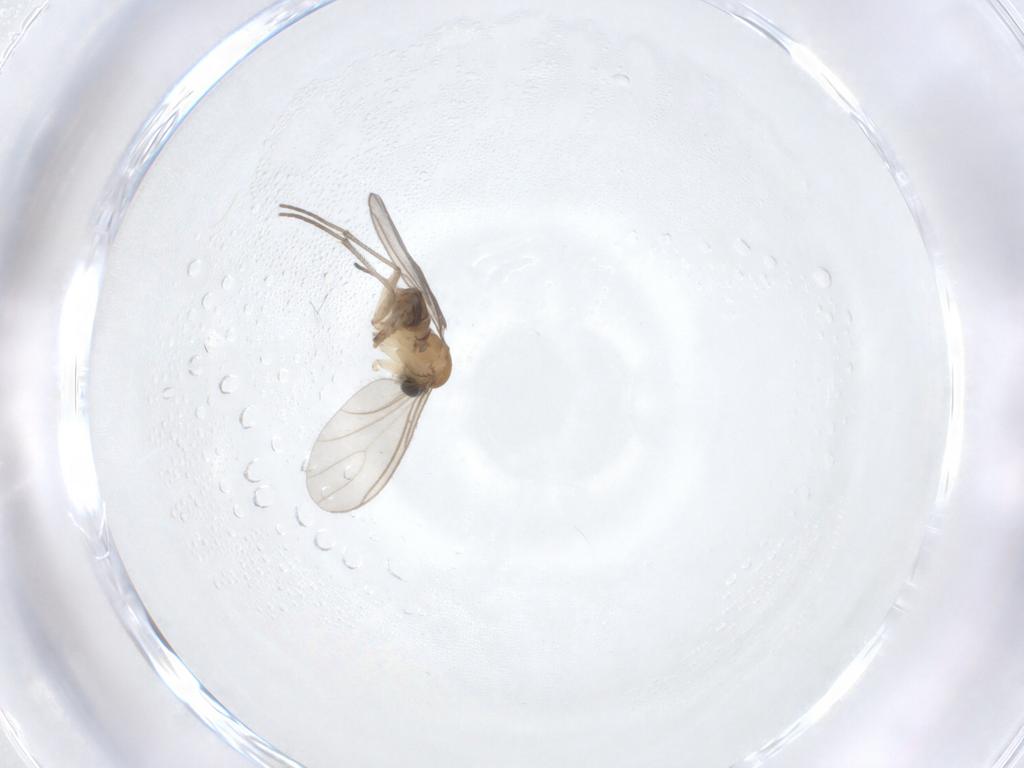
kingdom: Animalia
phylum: Arthropoda
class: Insecta
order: Diptera
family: Sciaridae
